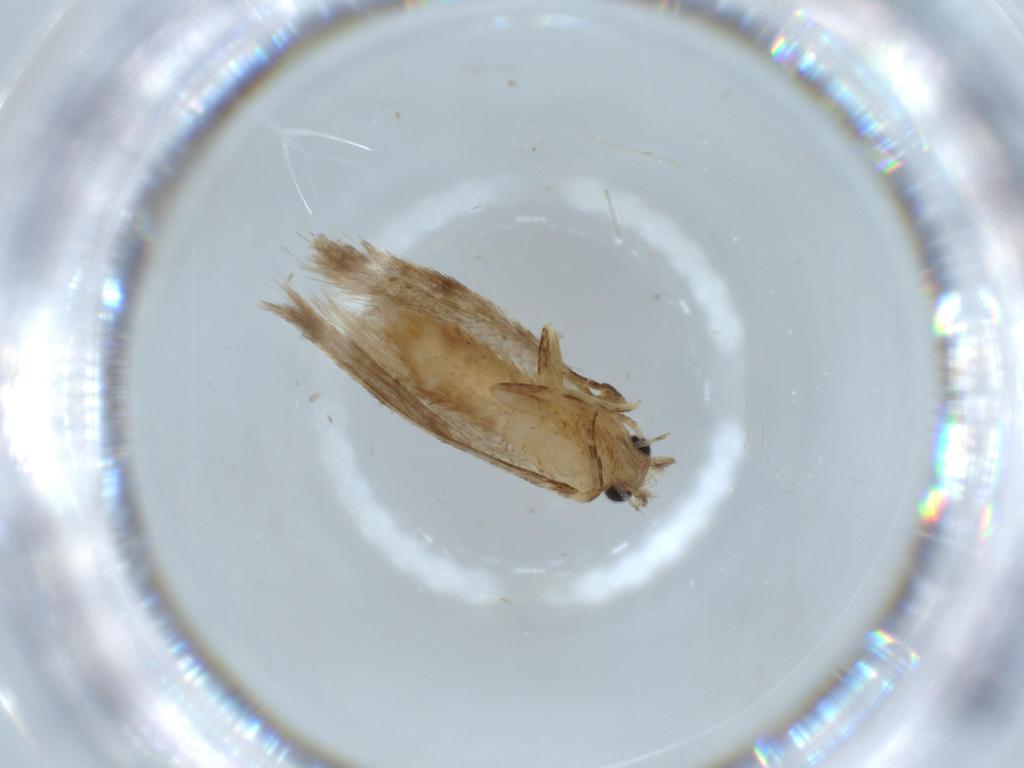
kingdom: Animalia
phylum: Arthropoda
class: Insecta
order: Lepidoptera
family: Tineidae
